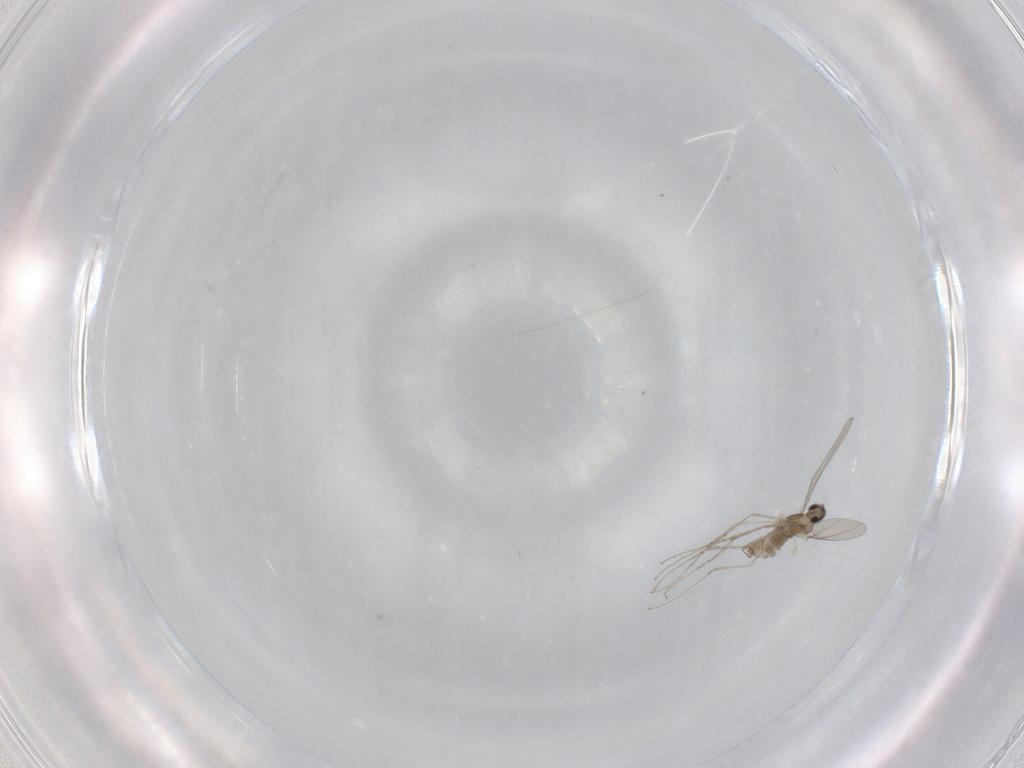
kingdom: Animalia
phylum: Arthropoda
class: Insecta
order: Diptera
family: Cecidomyiidae
